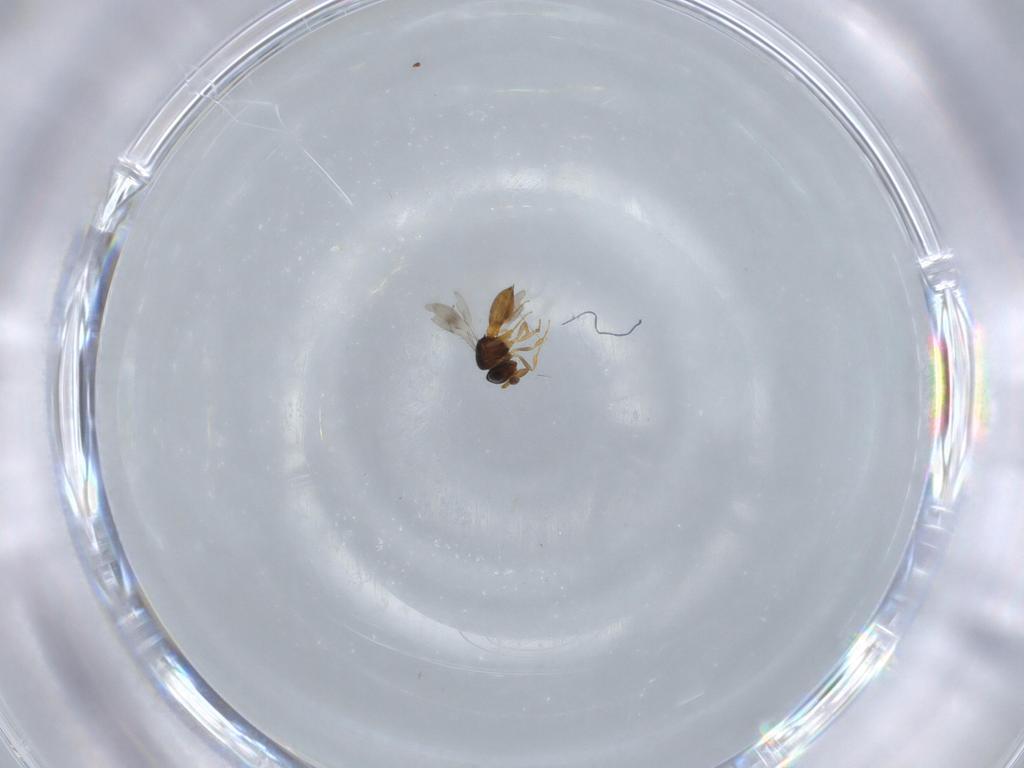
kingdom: Animalia
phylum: Arthropoda
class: Insecta
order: Hymenoptera
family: Scelionidae
